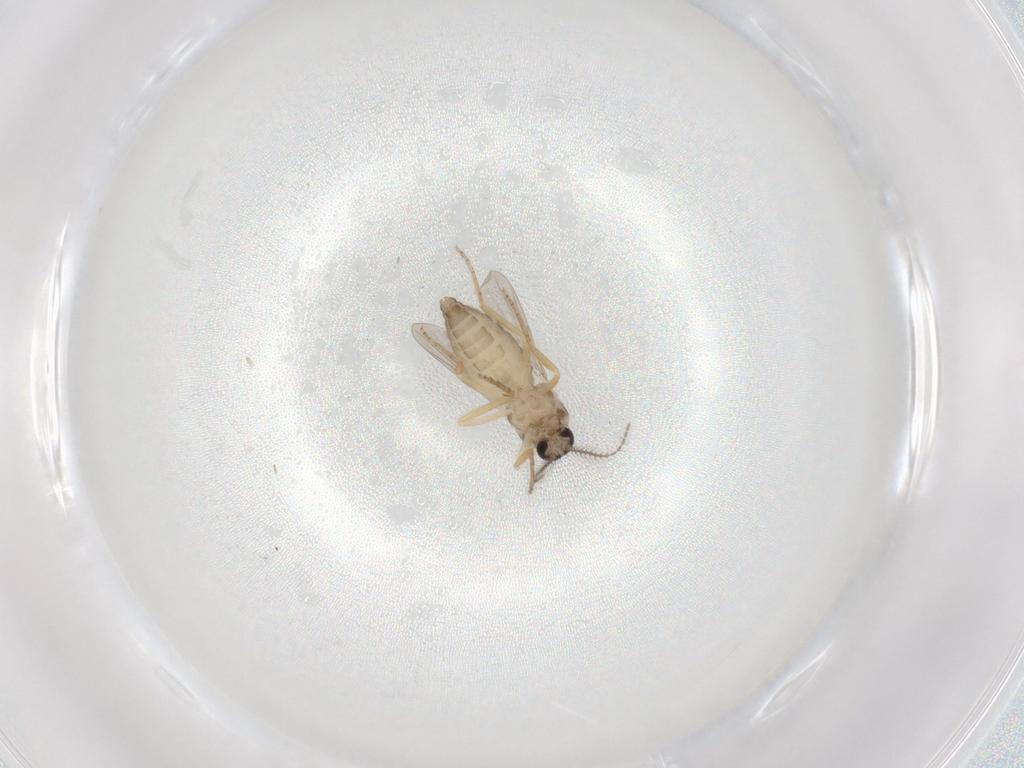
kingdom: Animalia
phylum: Arthropoda
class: Insecta
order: Diptera
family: Ceratopogonidae
